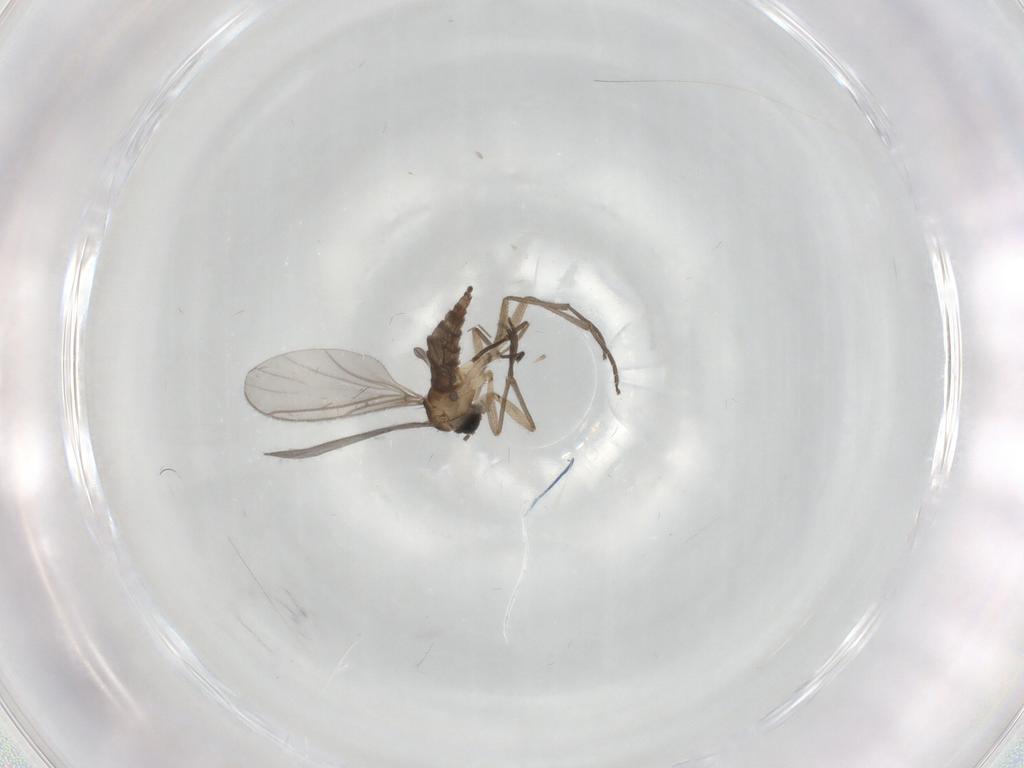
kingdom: Animalia
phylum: Arthropoda
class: Insecta
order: Diptera
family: Sciaridae
